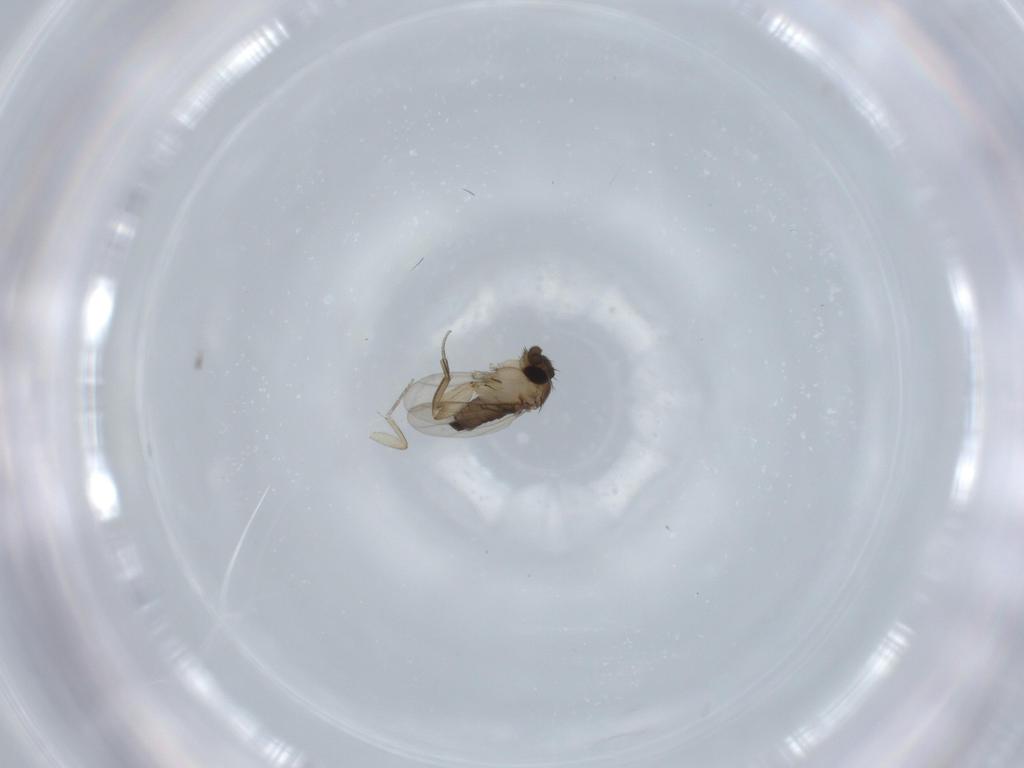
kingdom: Animalia
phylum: Arthropoda
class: Insecta
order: Diptera
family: Phoridae
